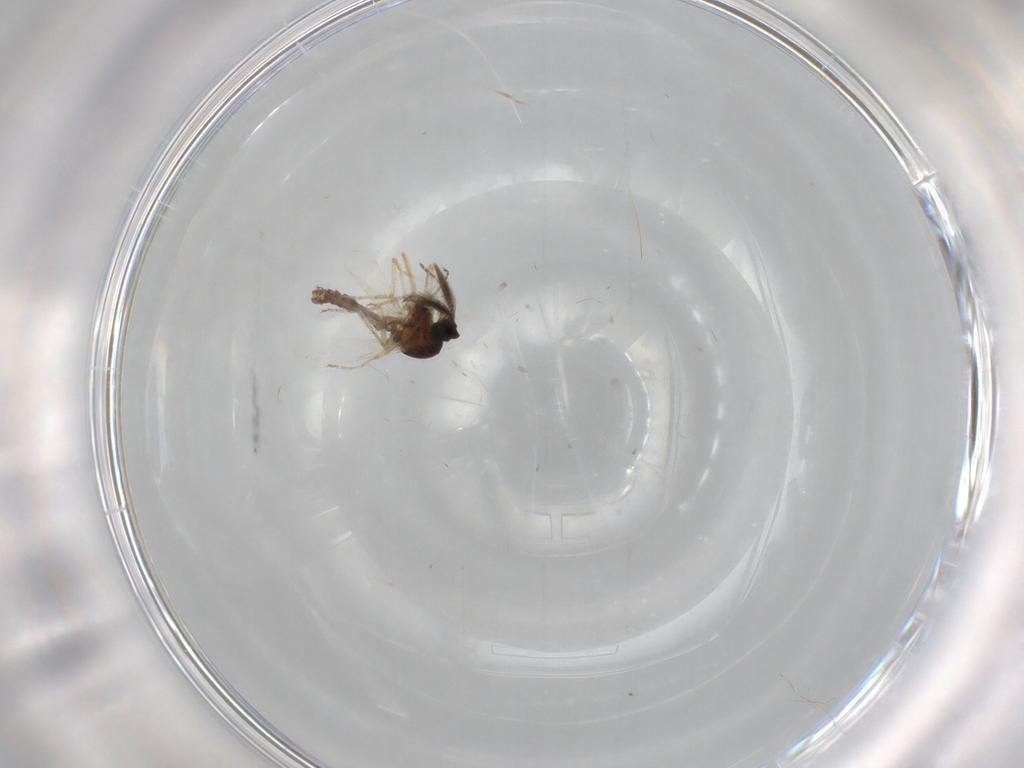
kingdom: Animalia
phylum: Arthropoda
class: Insecta
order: Diptera
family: Ceratopogonidae
